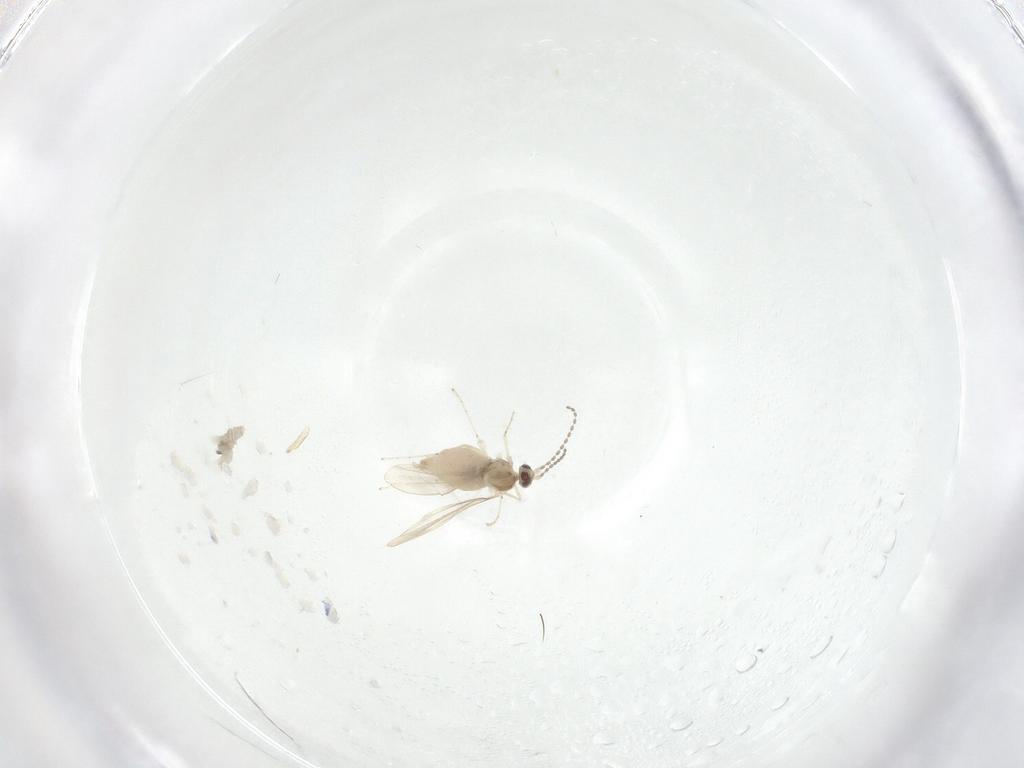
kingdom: Animalia
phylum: Arthropoda
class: Insecta
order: Diptera
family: Chironomidae
